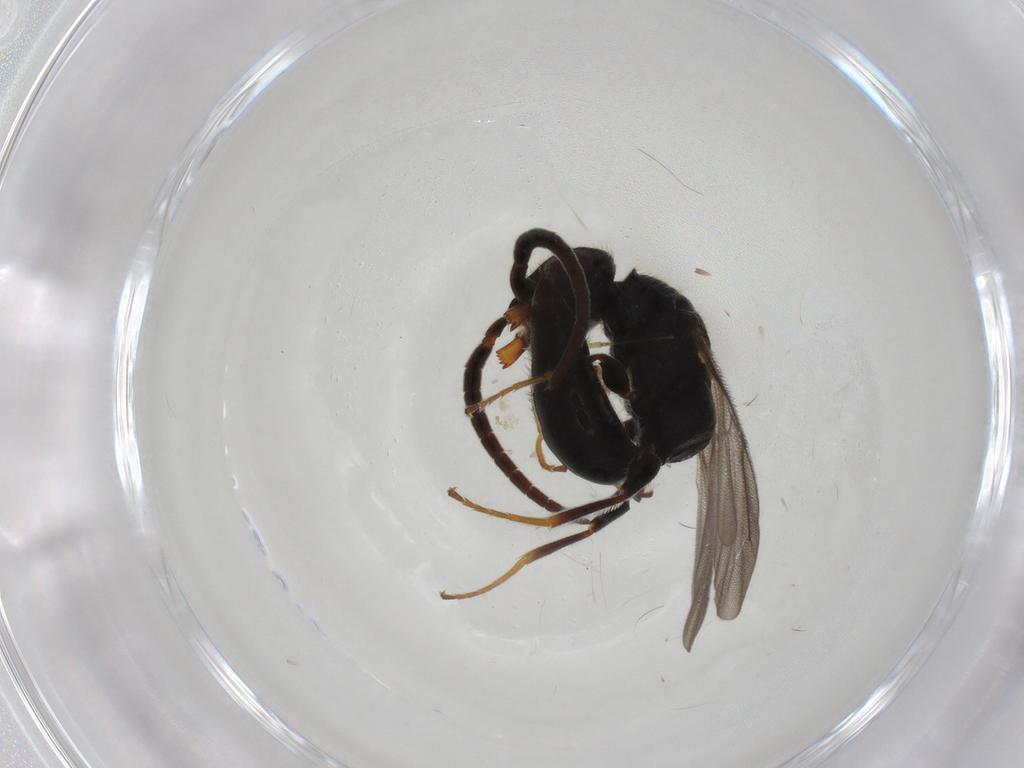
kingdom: Animalia
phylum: Arthropoda
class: Insecta
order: Hymenoptera
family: Bethylidae
